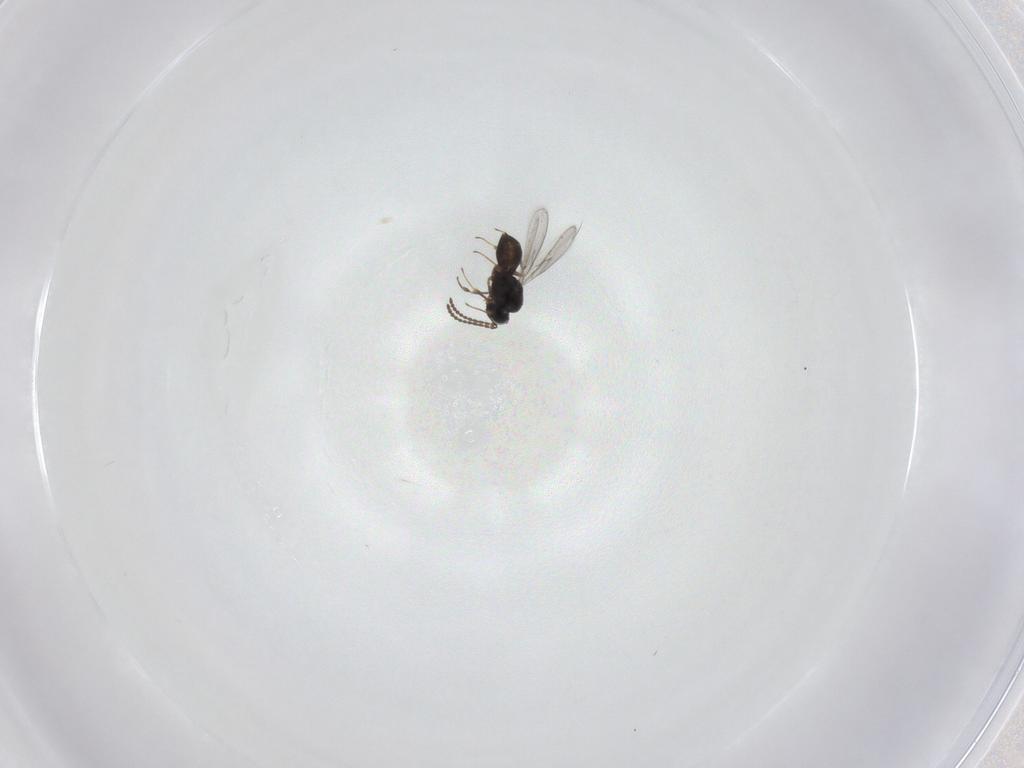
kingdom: Animalia
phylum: Arthropoda
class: Insecta
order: Hymenoptera
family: Scelionidae
